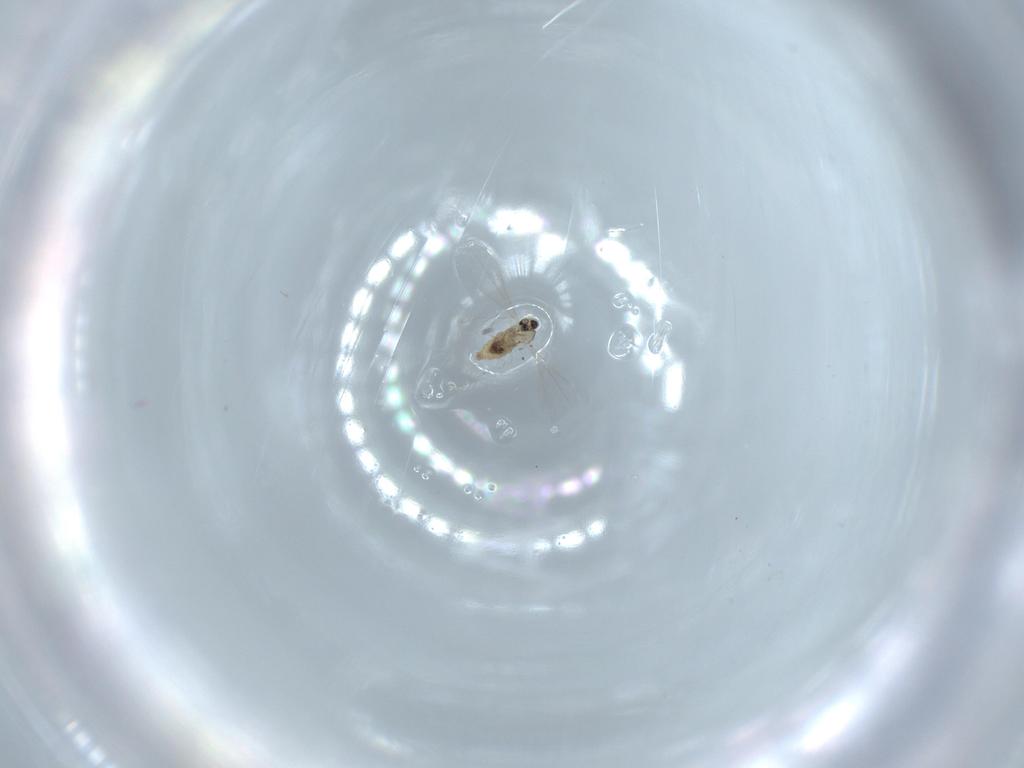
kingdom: Animalia
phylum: Arthropoda
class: Insecta
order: Diptera
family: Cecidomyiidae
